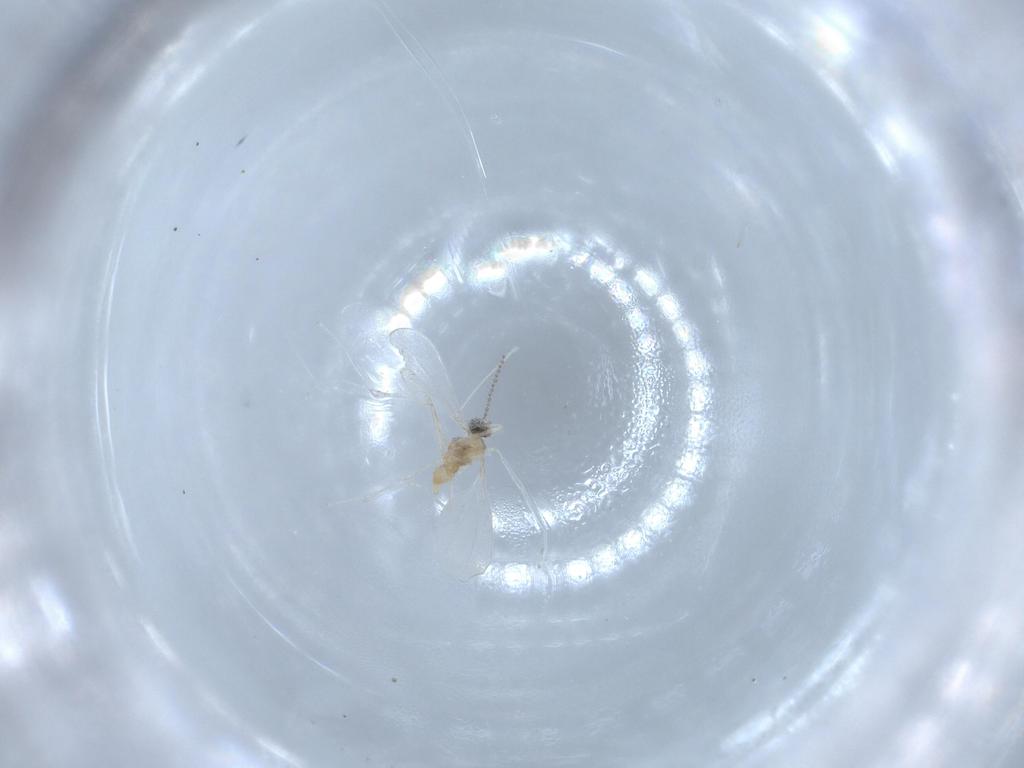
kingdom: Animalia
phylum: Arthropoda
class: Insecta
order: Diptera
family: Cecidomyiidae
